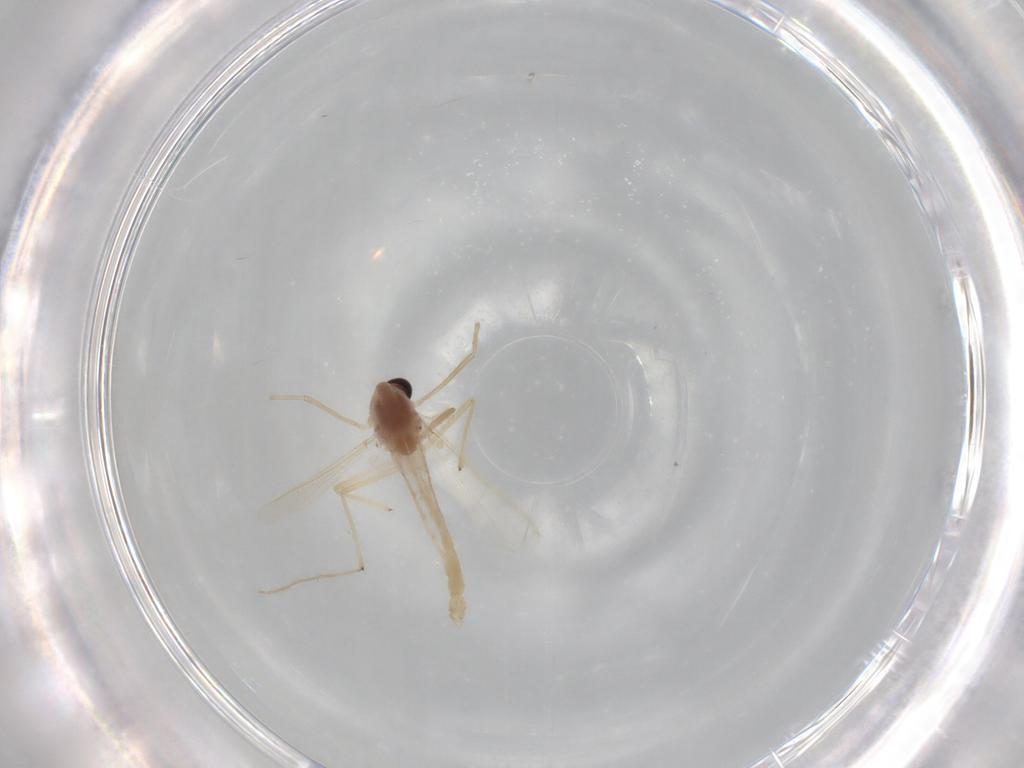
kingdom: Animalia
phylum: Arthropoda
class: Insecta
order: Diptera
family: Chironomidae
